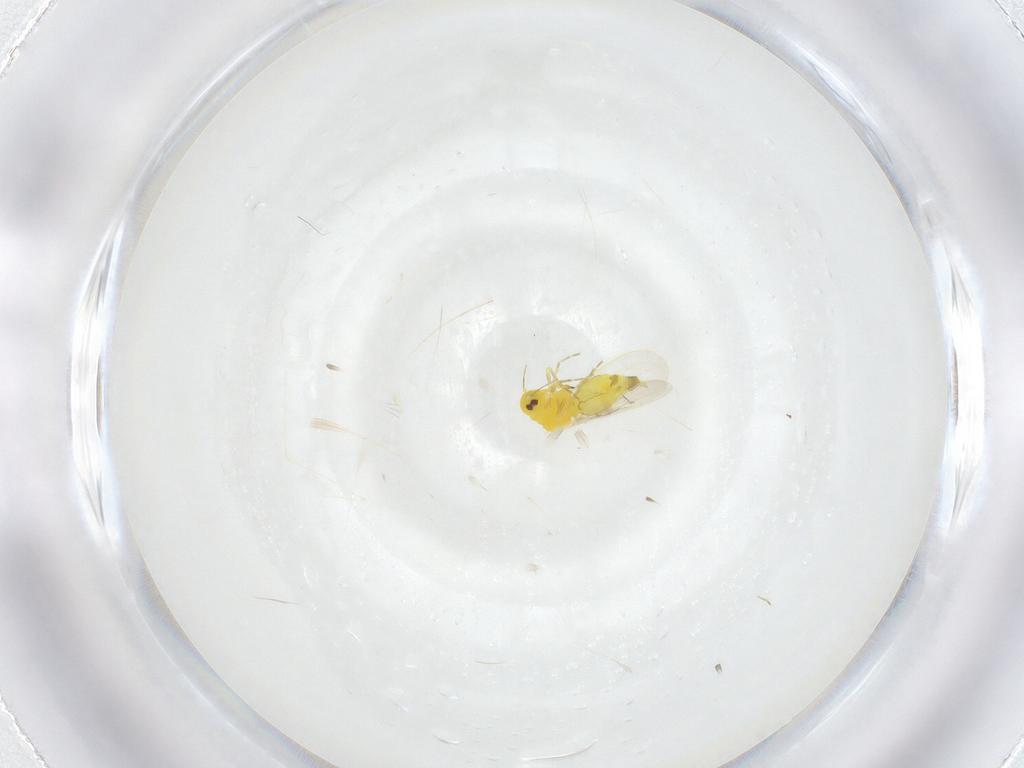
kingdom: Animalia
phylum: Arthropoda
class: Insecta
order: Hemiptera
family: Aleyrodidae
